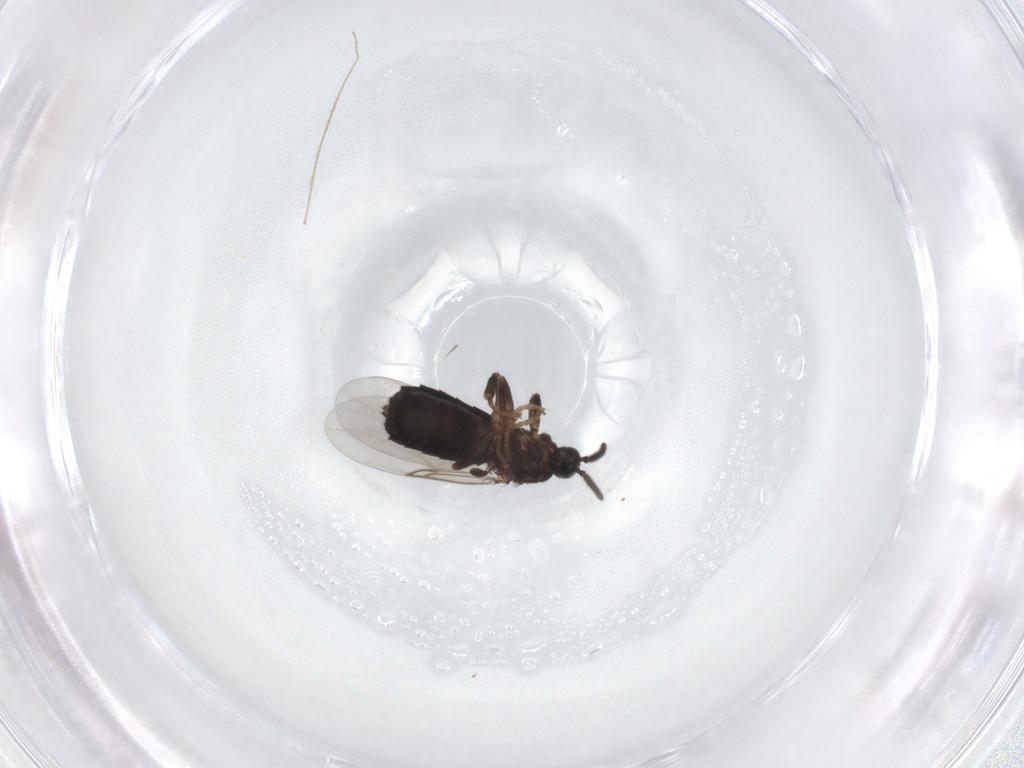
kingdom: Animalia
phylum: Arthropoda
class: Insecta
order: Diptera
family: Scatopsidae
